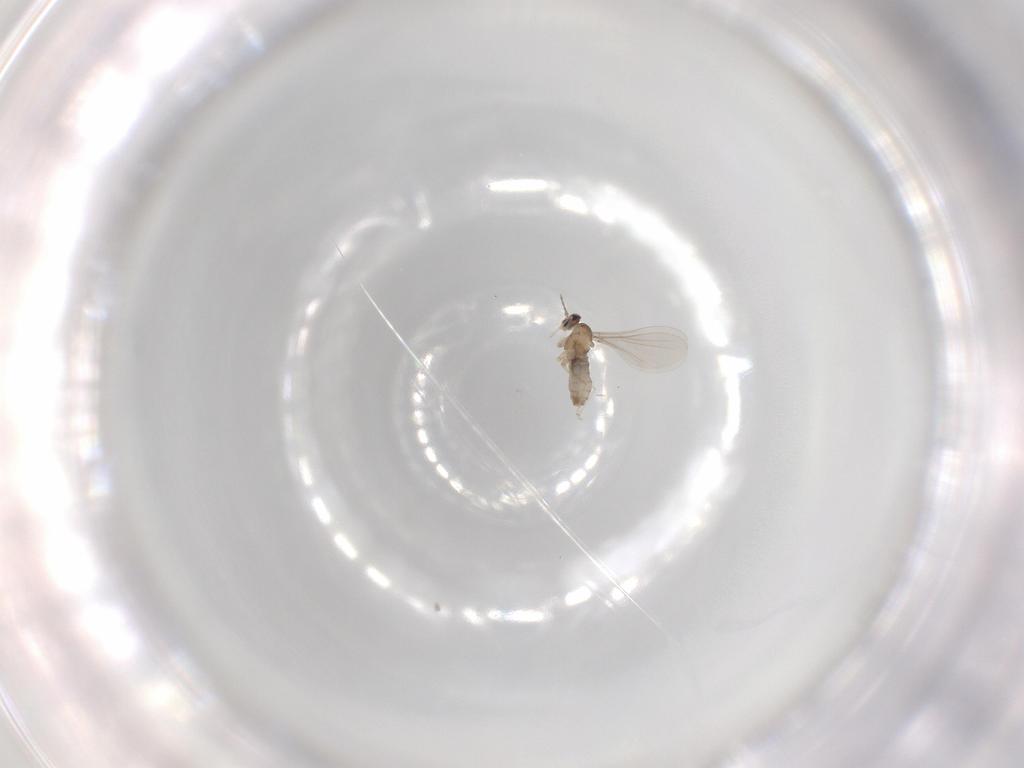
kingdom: Animalia
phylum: Arthropoda
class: Insecta
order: Diptera
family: Cecidomyiidae
